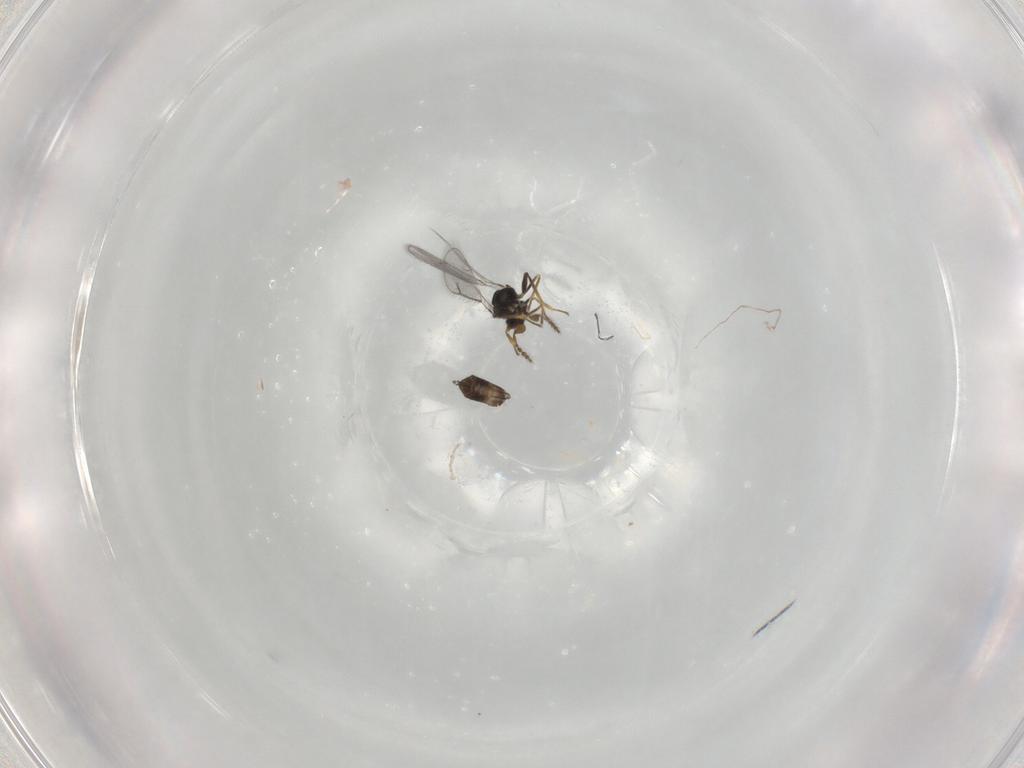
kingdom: Animalia
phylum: Arthropoda
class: Insecta
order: Hymenoptera
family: Eulophidae
